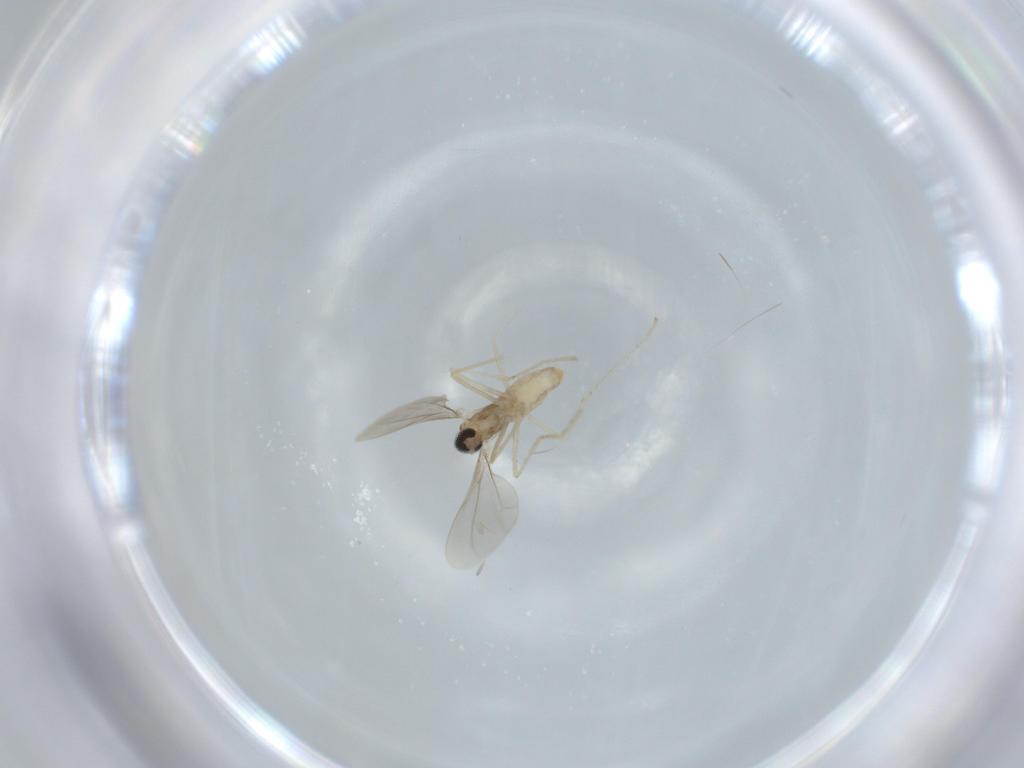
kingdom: Animalia
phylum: Arthropoda
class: Insecta
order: Diptera
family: Cecidomyiidae
